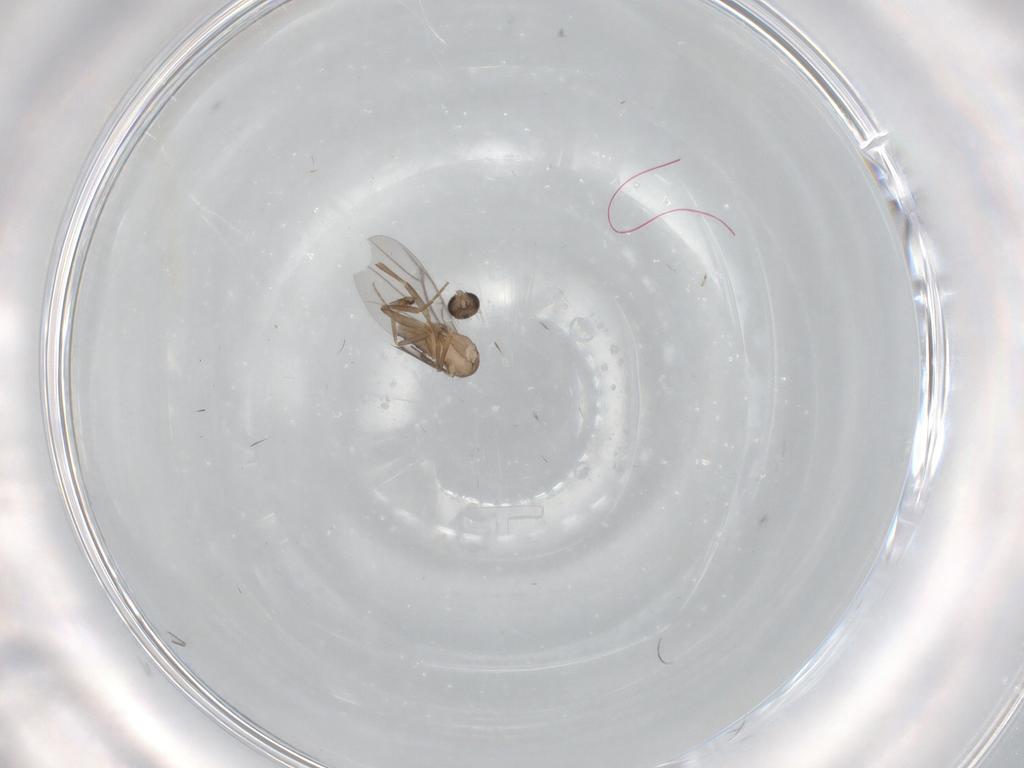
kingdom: Animalia
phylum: Arthropoda
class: Insecta
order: Diptera
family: Chironomidae
